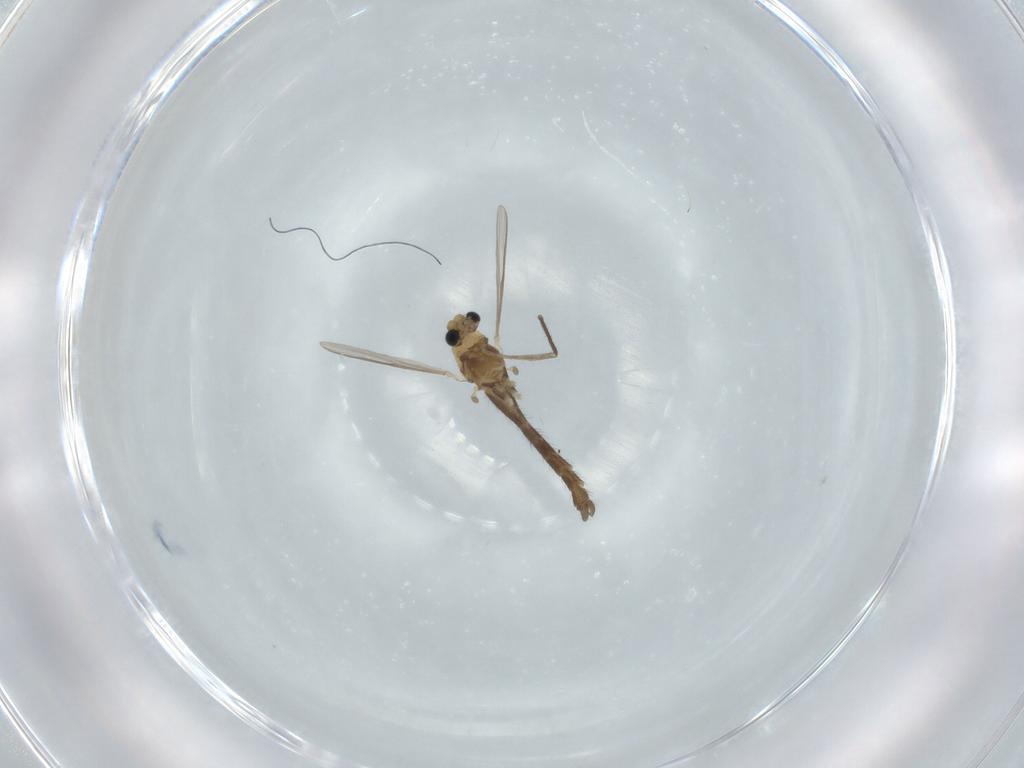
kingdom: Animalia
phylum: Arthropoda
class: Insecta
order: Diptera
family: Chironomidae
